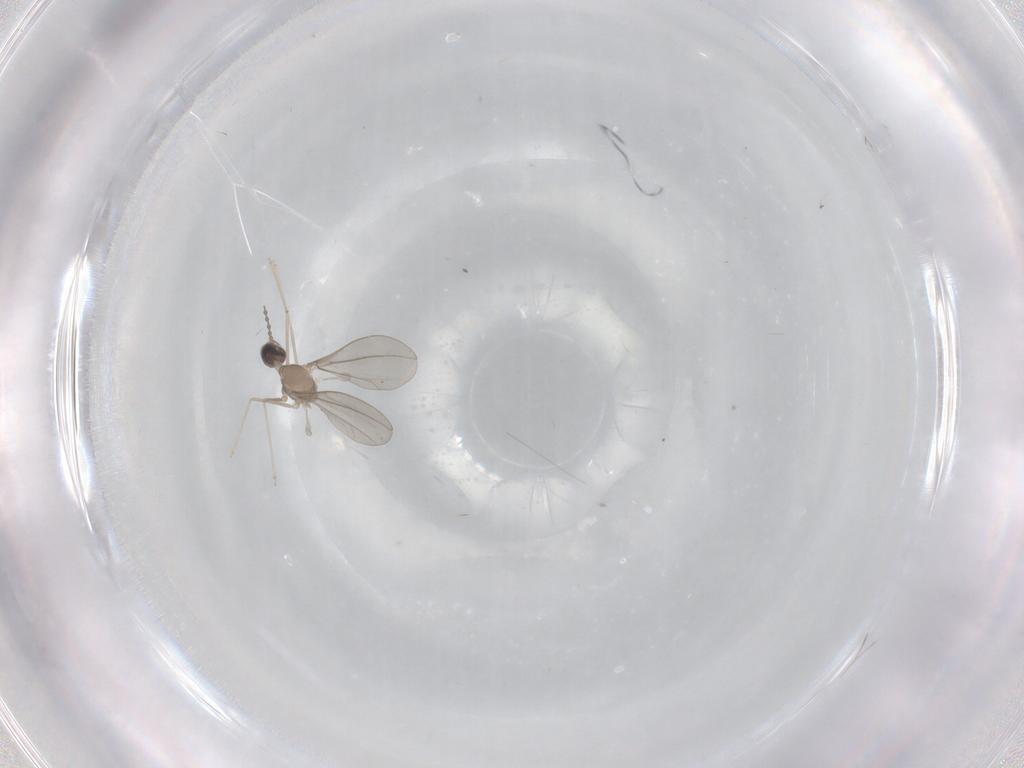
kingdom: Animalia
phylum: Arthropoda
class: Insecta
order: Diptera
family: Cecidomyiidae
